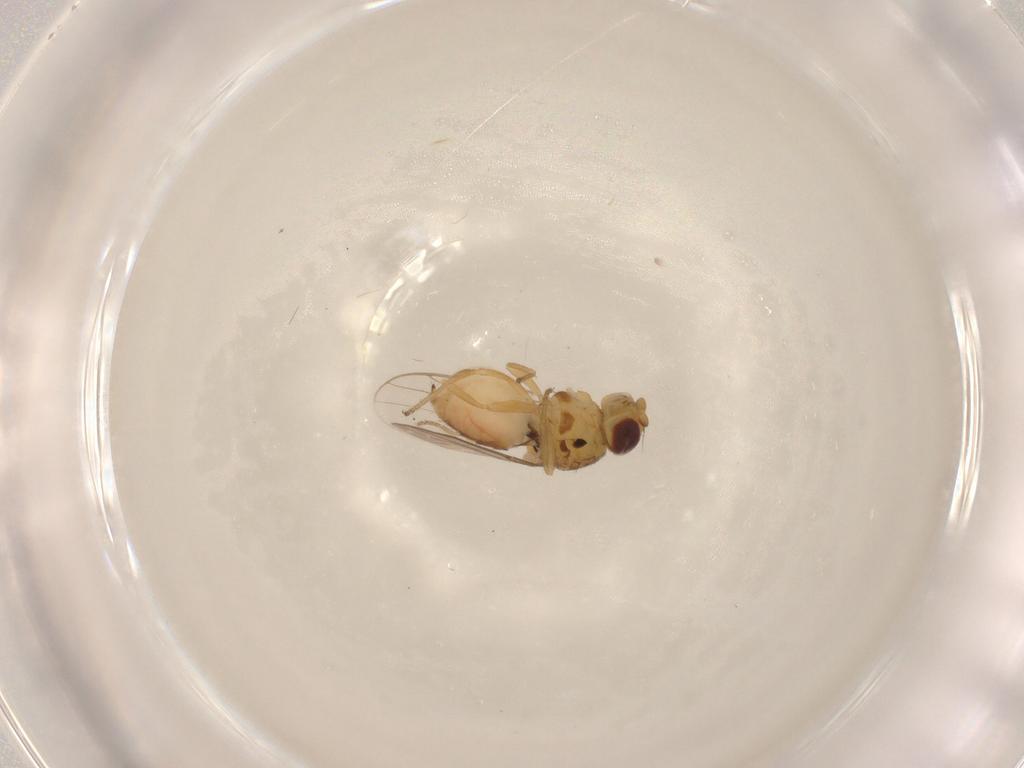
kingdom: Animalia
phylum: Arthropoda
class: Insecta
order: Diptera
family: Chloropidae
